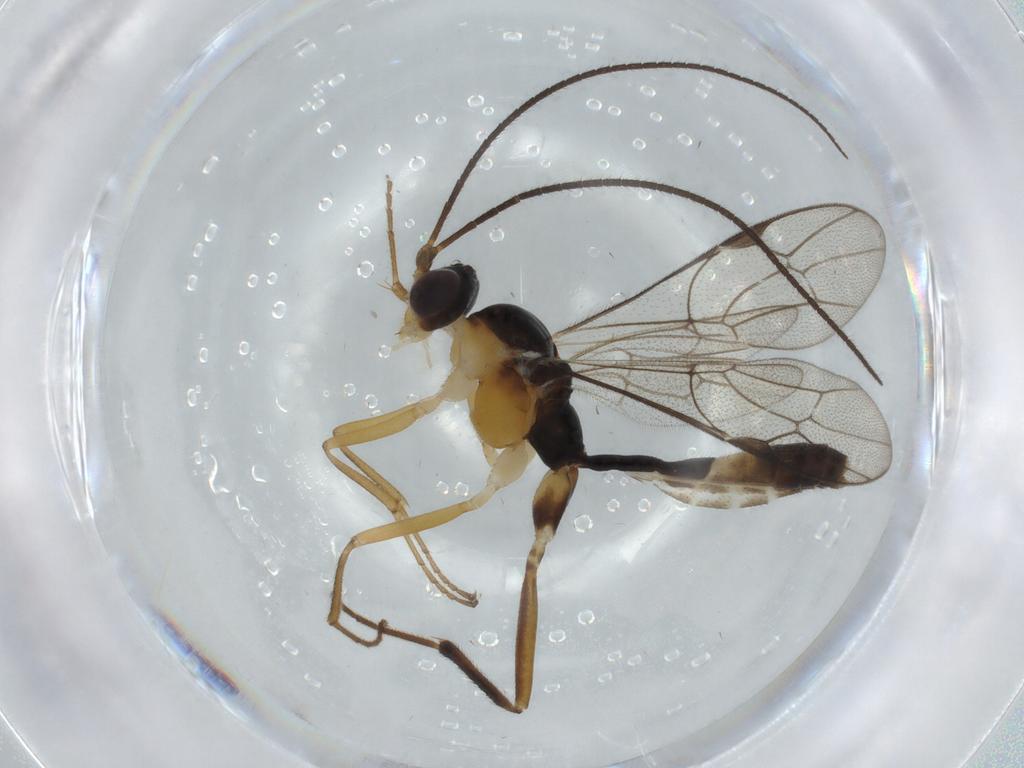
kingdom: Animalia
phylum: Arthropoda
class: Insecta
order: Hymenoptera
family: Platygastridae
